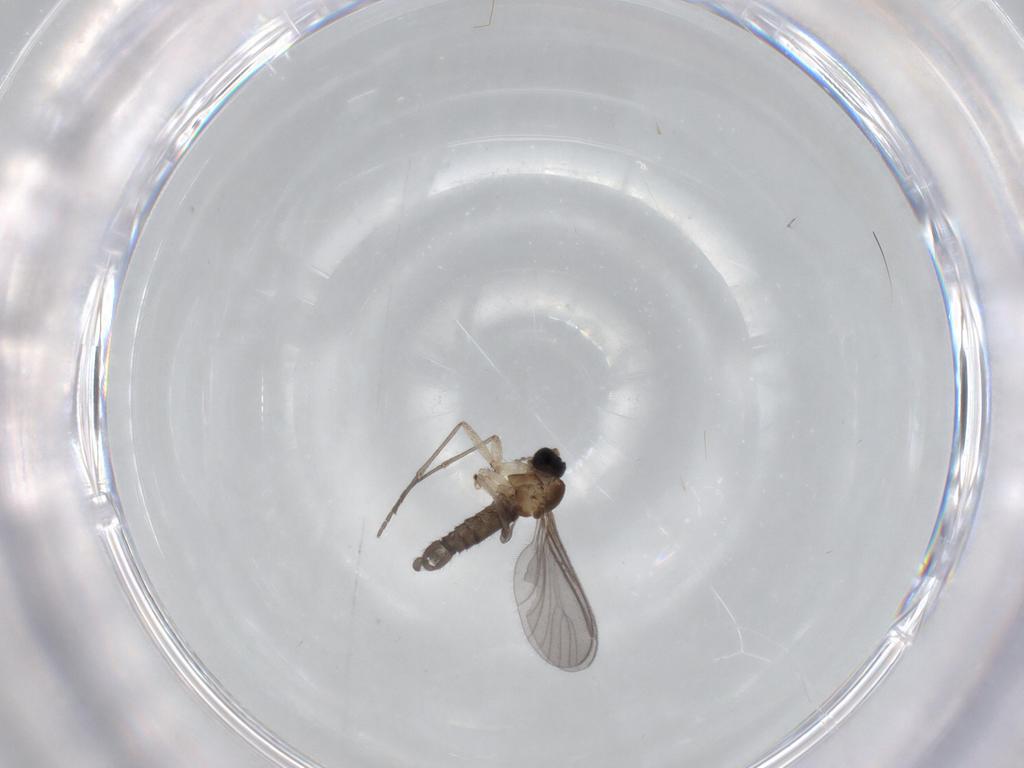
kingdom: Animalia
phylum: Arthropoda
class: Insecta
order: Diptera
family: Sciaridae
